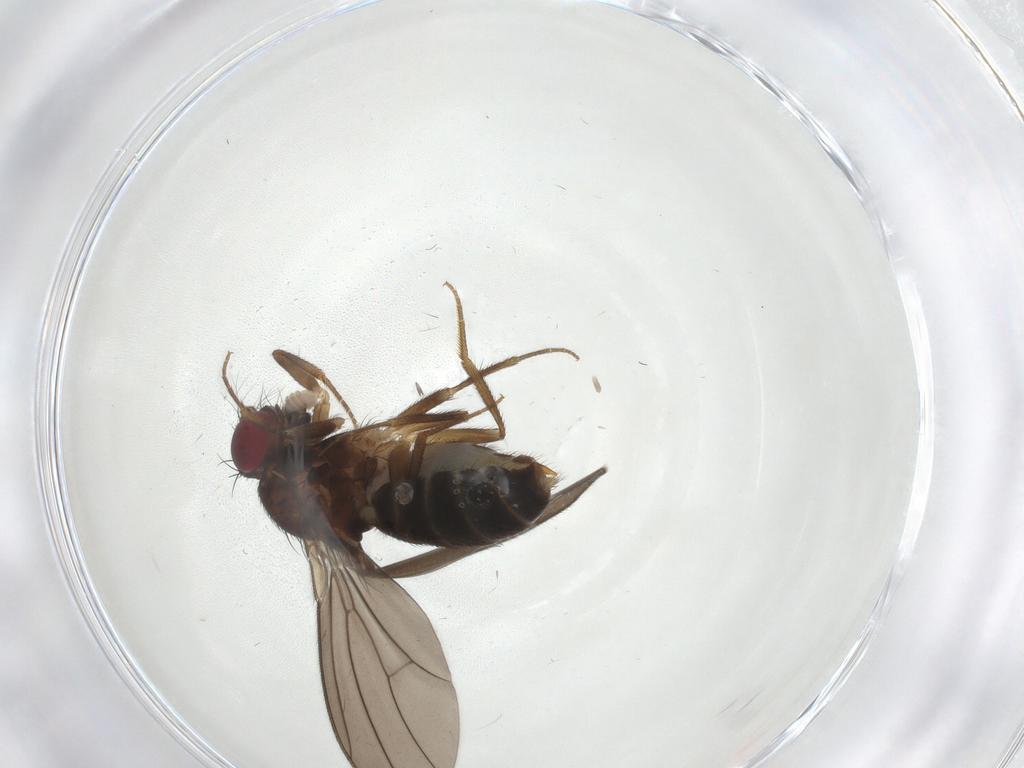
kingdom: Animalia
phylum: Arthropoda
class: Insecta
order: Diptera
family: Drosophilidae
